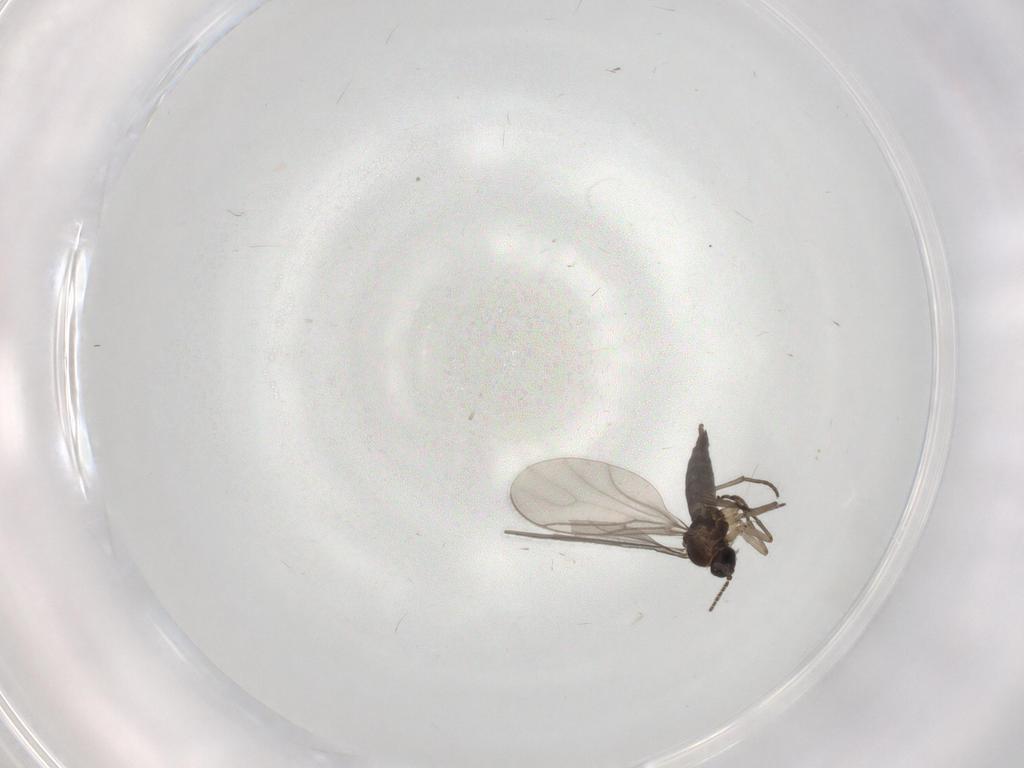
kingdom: Animalia
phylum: Arthropoda
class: Insecta
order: Diptera
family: Sciaridae
